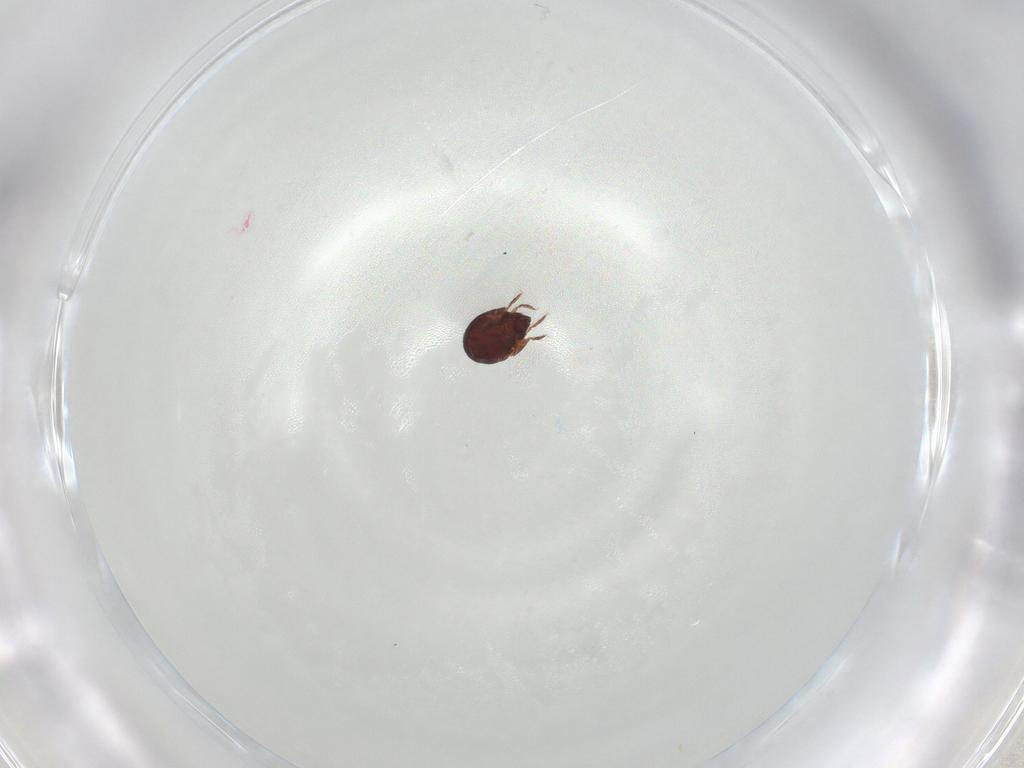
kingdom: Animalia
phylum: Arthropoda
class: Arachnida
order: Sarcoptiformes
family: Humerobatidae
